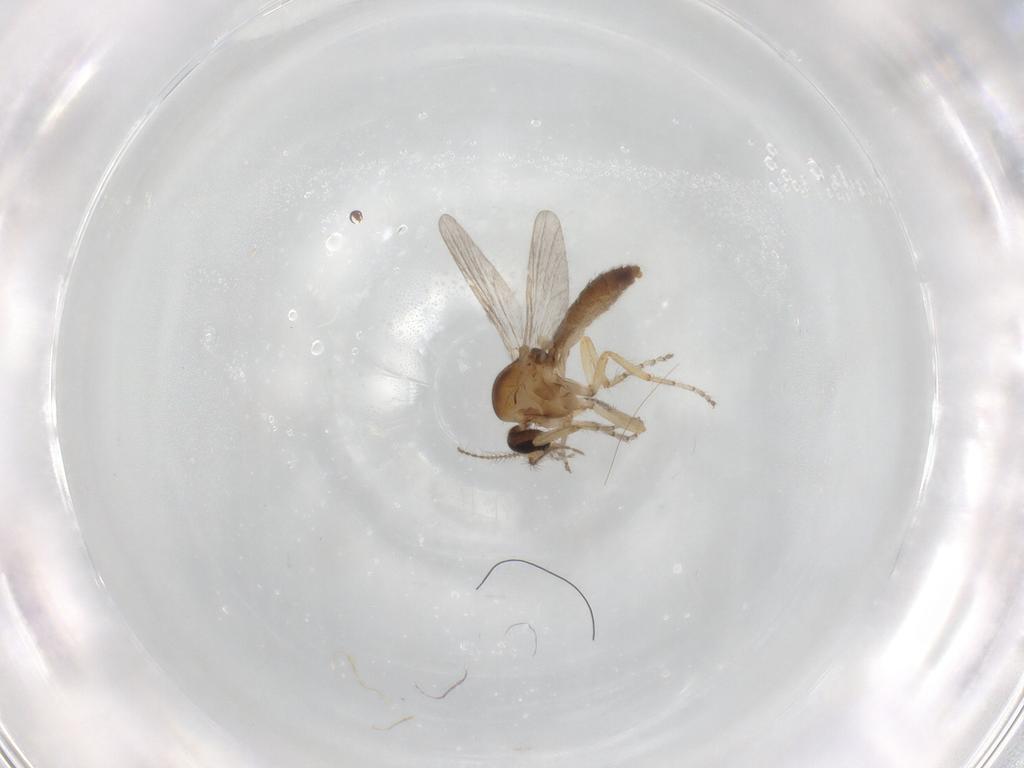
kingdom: Animalia
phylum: Arthropoda
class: Insecta
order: Diptera
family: Ceratopogonidae
